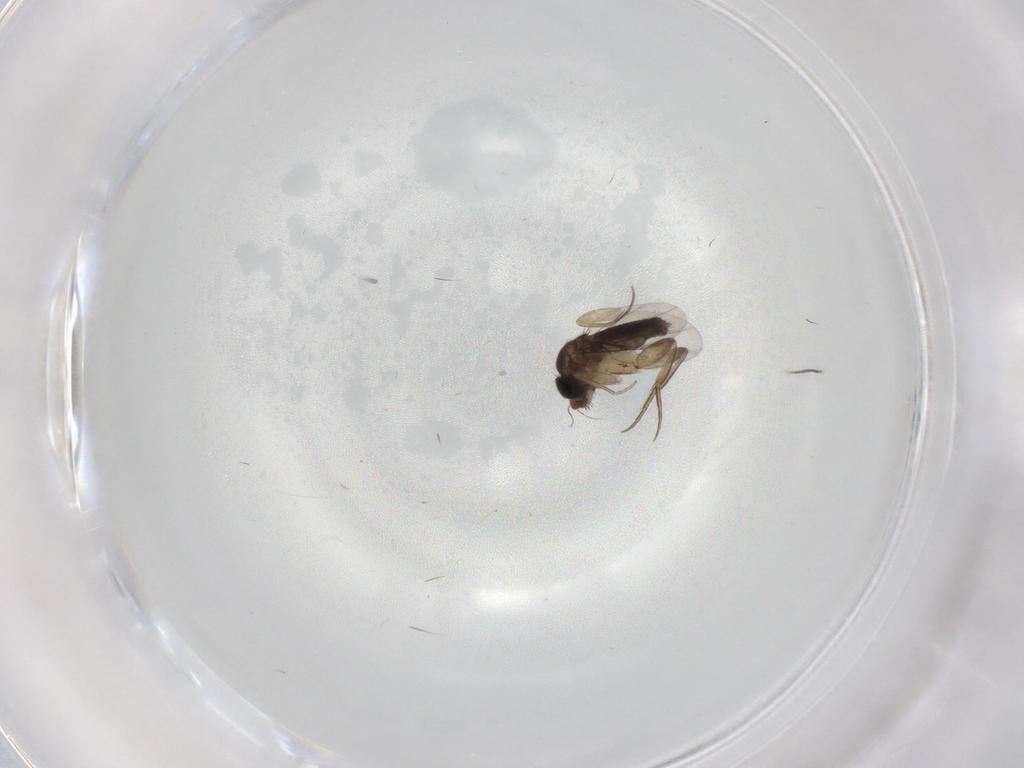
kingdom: Animalia
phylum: Arthropoda
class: Insecta
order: Diptera
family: Phoridae
